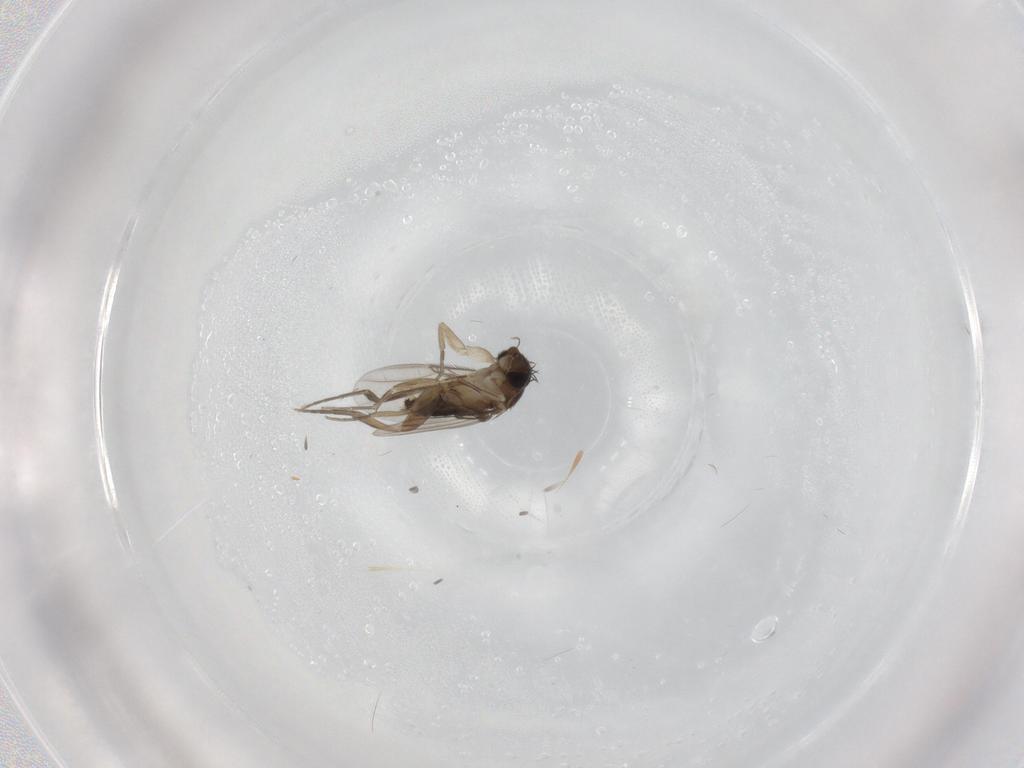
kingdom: Animalia
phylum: Arthropoda
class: Insecta
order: Diptera
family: Phoridae
